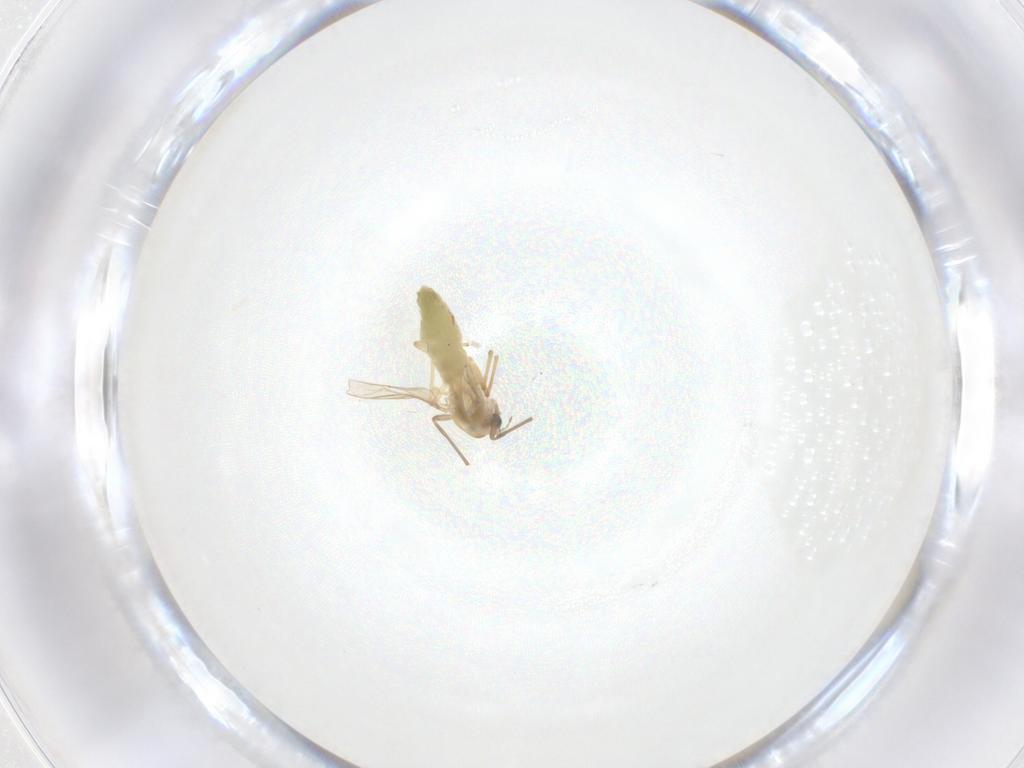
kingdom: Animalia
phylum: Arthropoda
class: Insecta
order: Diptera
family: Chironomidae
